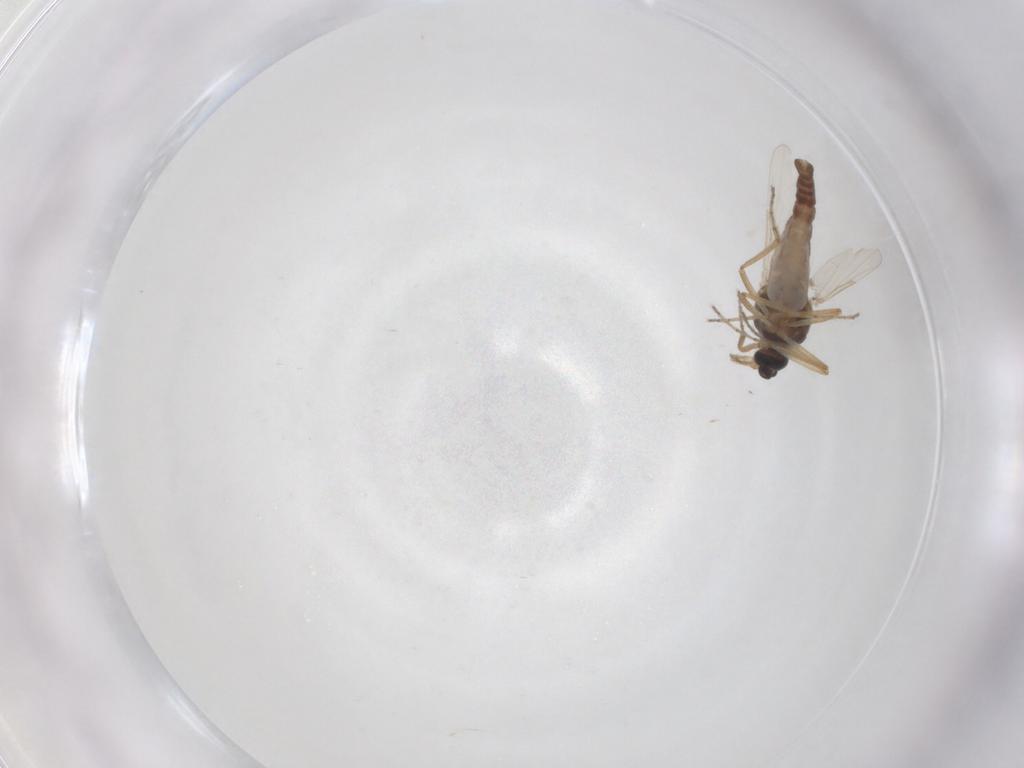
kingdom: Animalia
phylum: Arthropoda
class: Insecta
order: Diptera
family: Ceratopogonidae
